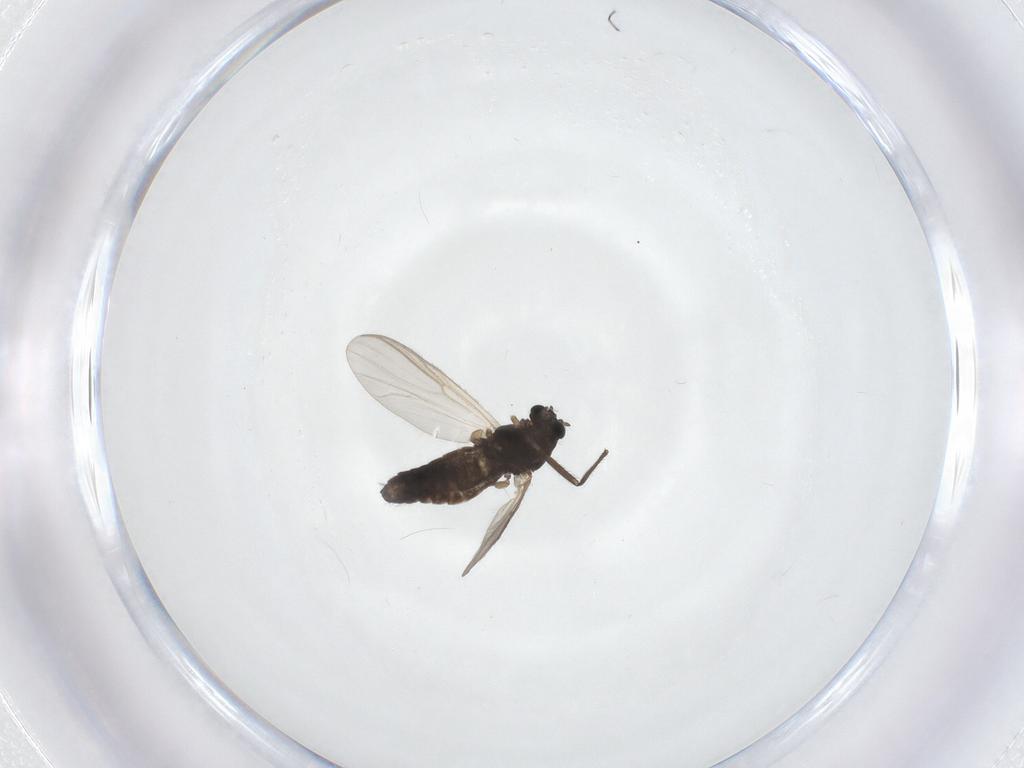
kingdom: Animalia
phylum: Arthropoda
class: Insecta
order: Diptera
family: Chironomidae
